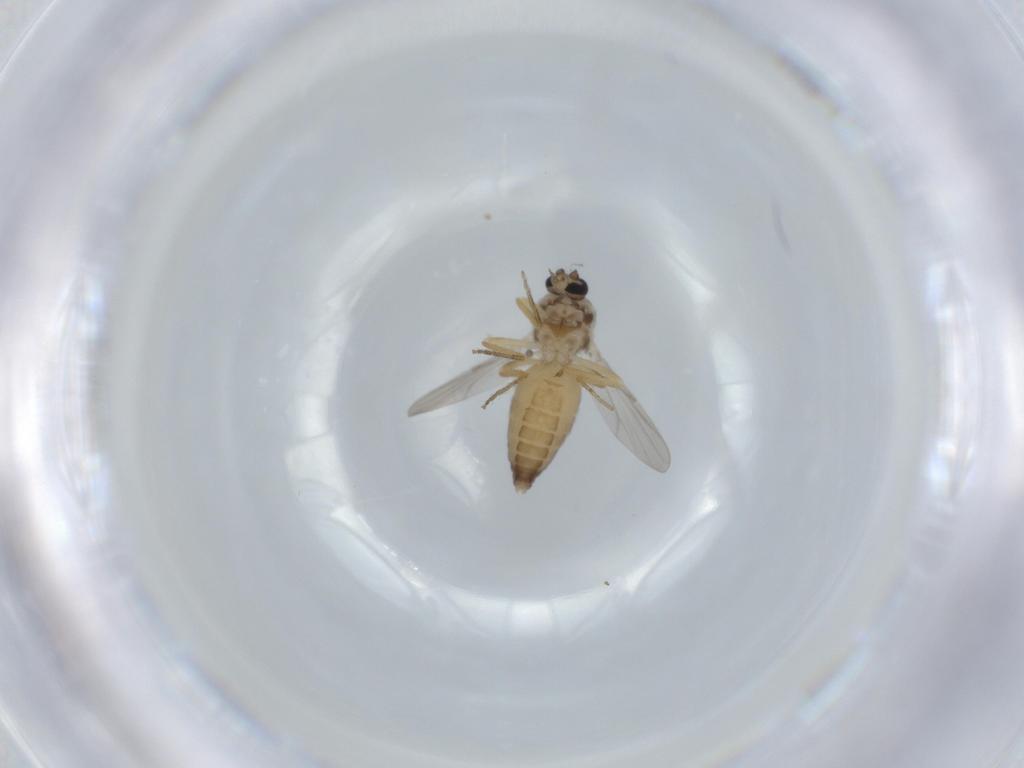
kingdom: Animalia
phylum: Arthropoda
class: Insecta
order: Diptera
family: Ceratopogonidae
